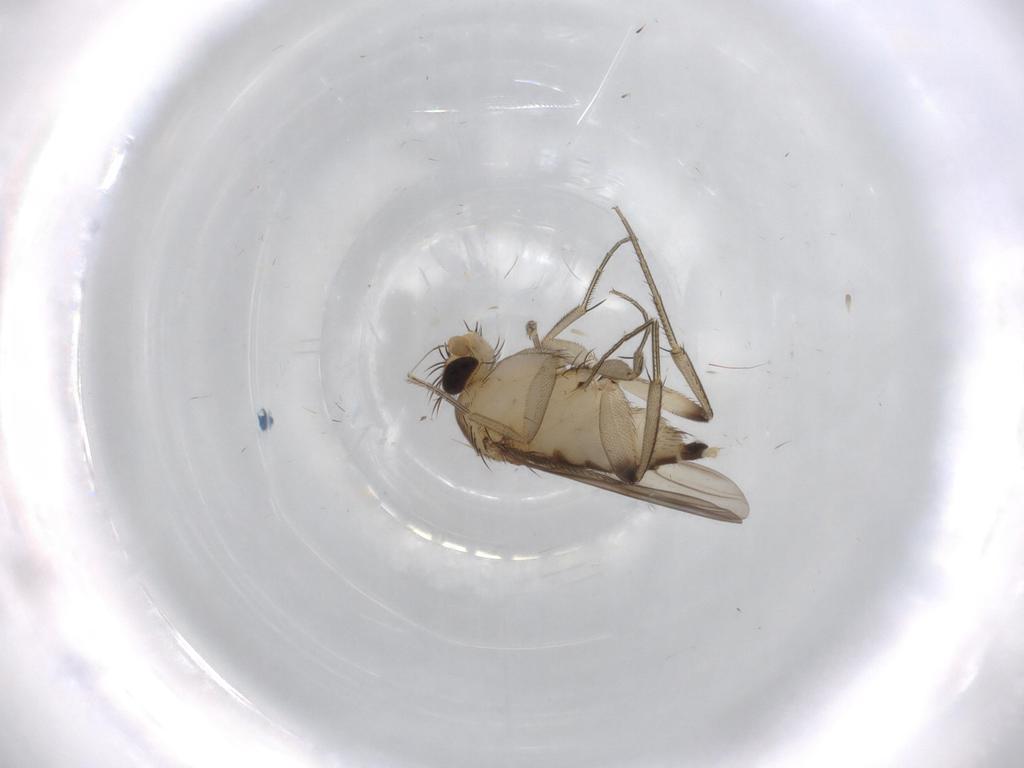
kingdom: Animalia
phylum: Arthropoda
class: Insecta
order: Diptera
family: Phoridae
